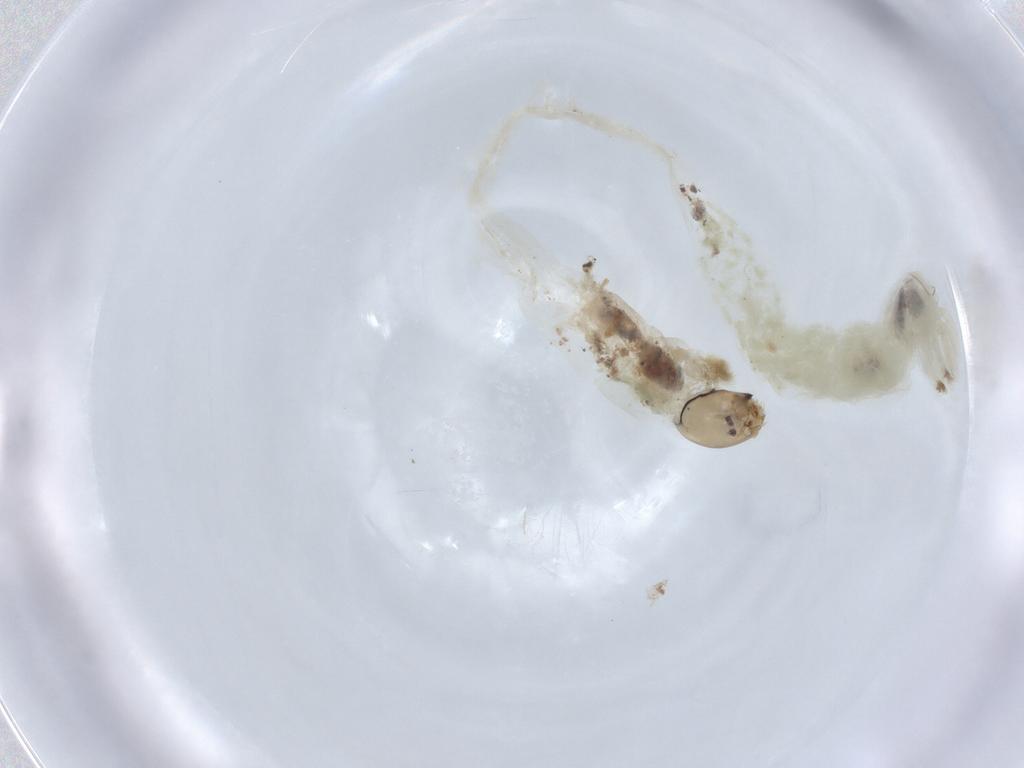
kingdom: Animalia
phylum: Arthropoda
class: Insecta
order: Diptera
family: Chironomidae
